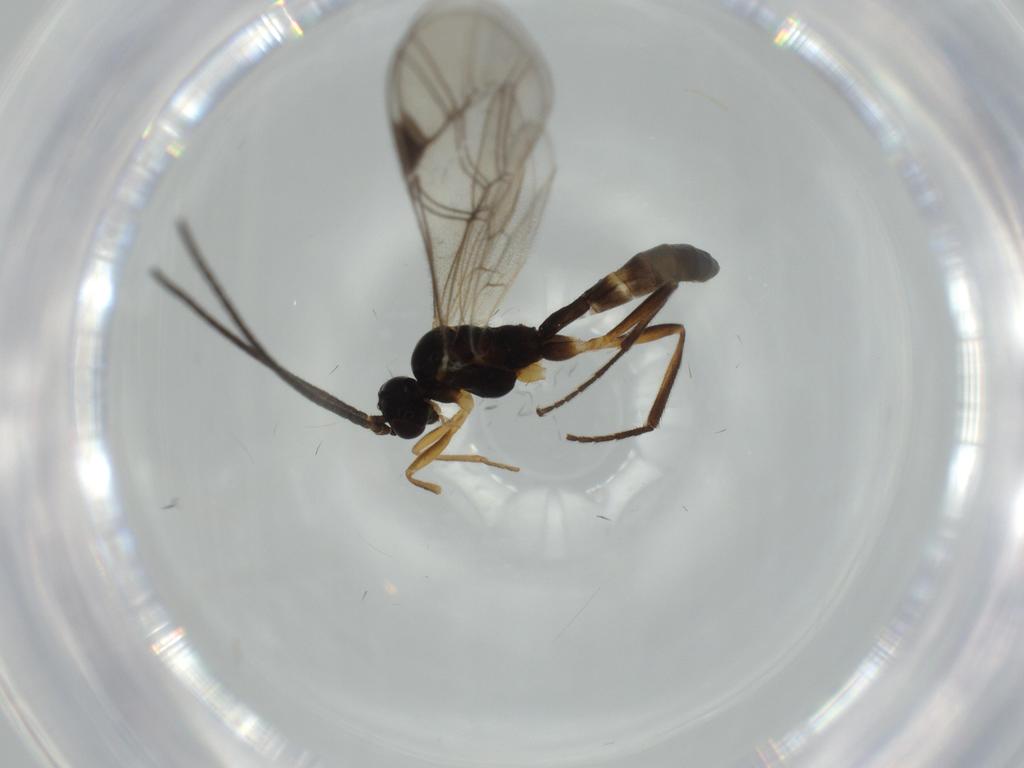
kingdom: Animalia
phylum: Arthropoda
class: Insecta
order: Hymenoptera
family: Ichneumonidae
